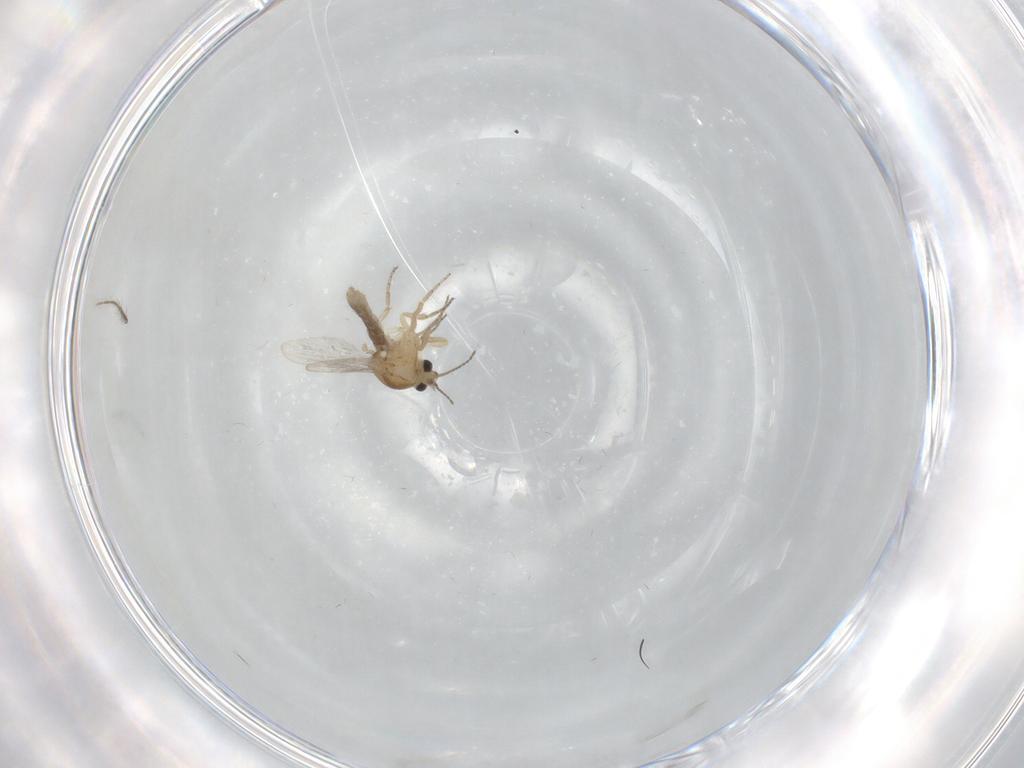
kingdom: Animalia
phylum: Arthropoda
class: Insecta
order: Diptera
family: Ceratopogonidae
